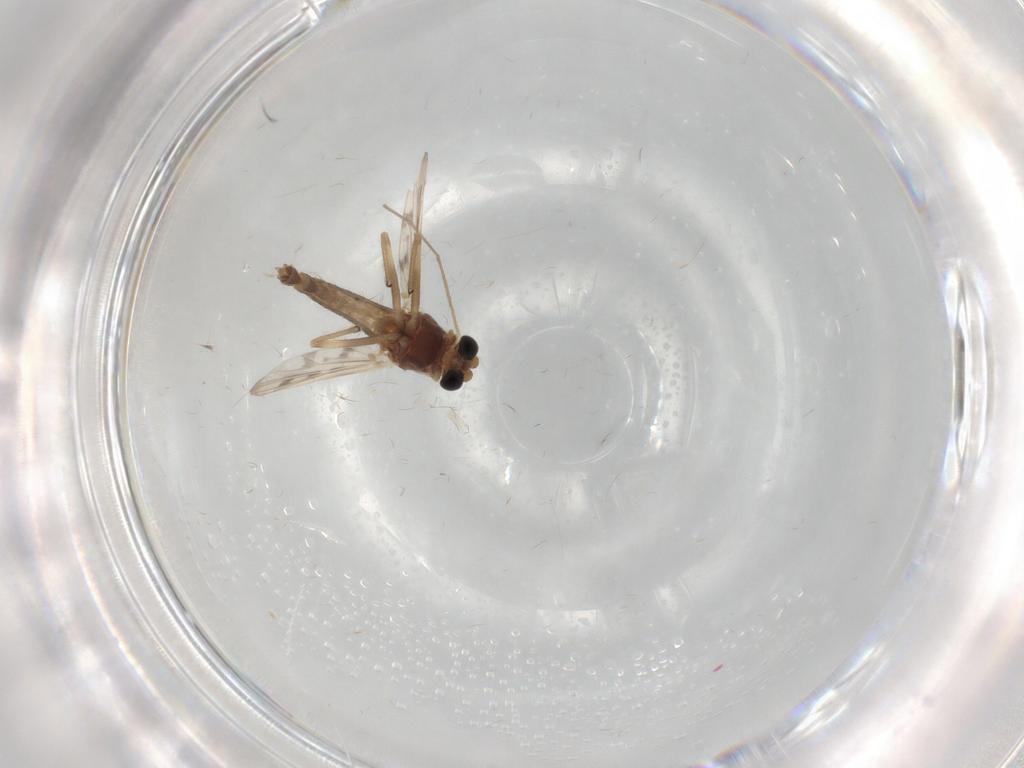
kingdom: Animalia
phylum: Arthropoda
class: Insecta
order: Diptera
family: Chironomidae
